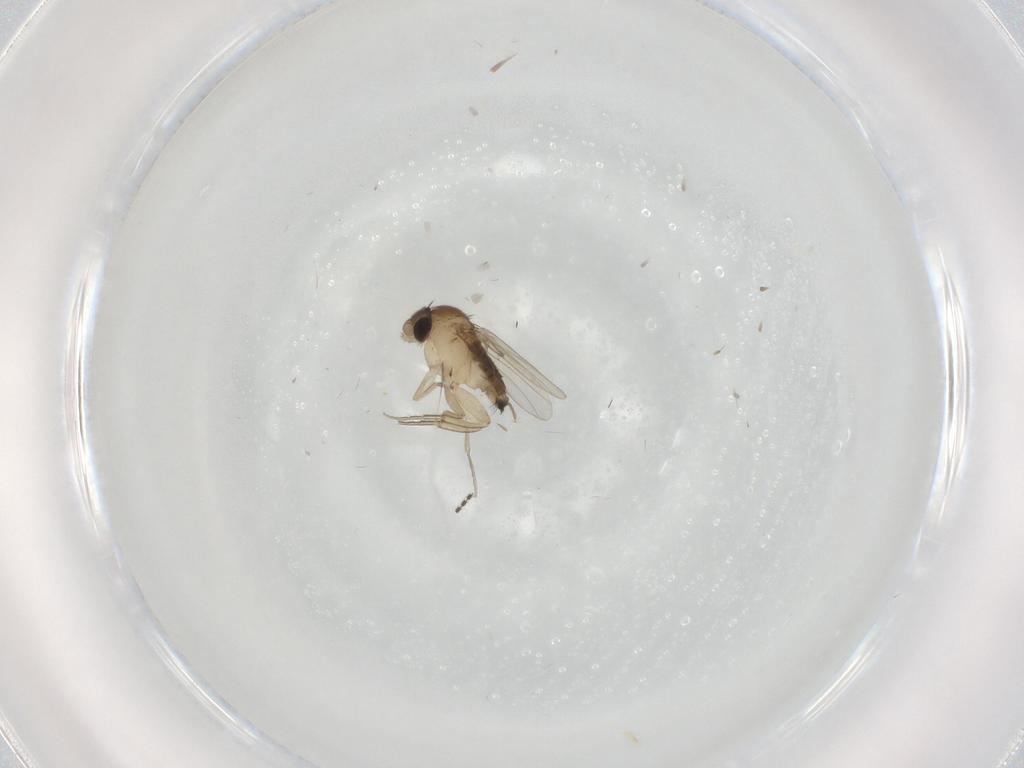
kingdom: Animalia
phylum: Arthropoda
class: Insecta
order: Diptera
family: Phoridae
